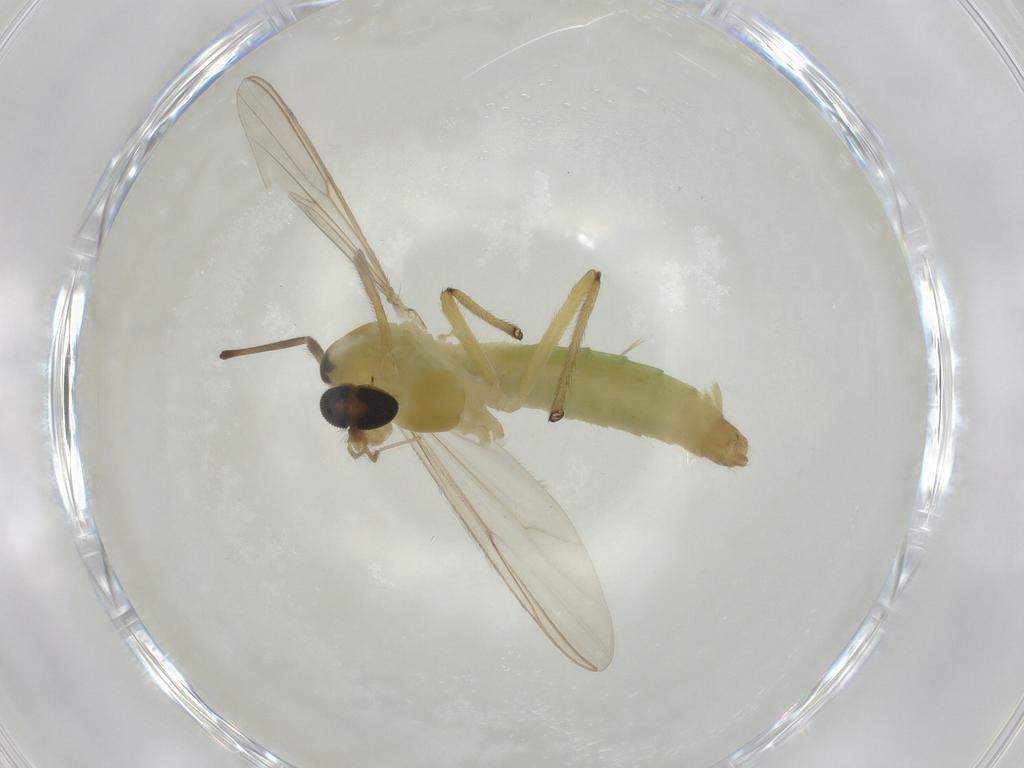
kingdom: Animalia
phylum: Arthropoda
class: Insecta
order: Diptera
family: Chironomidae
